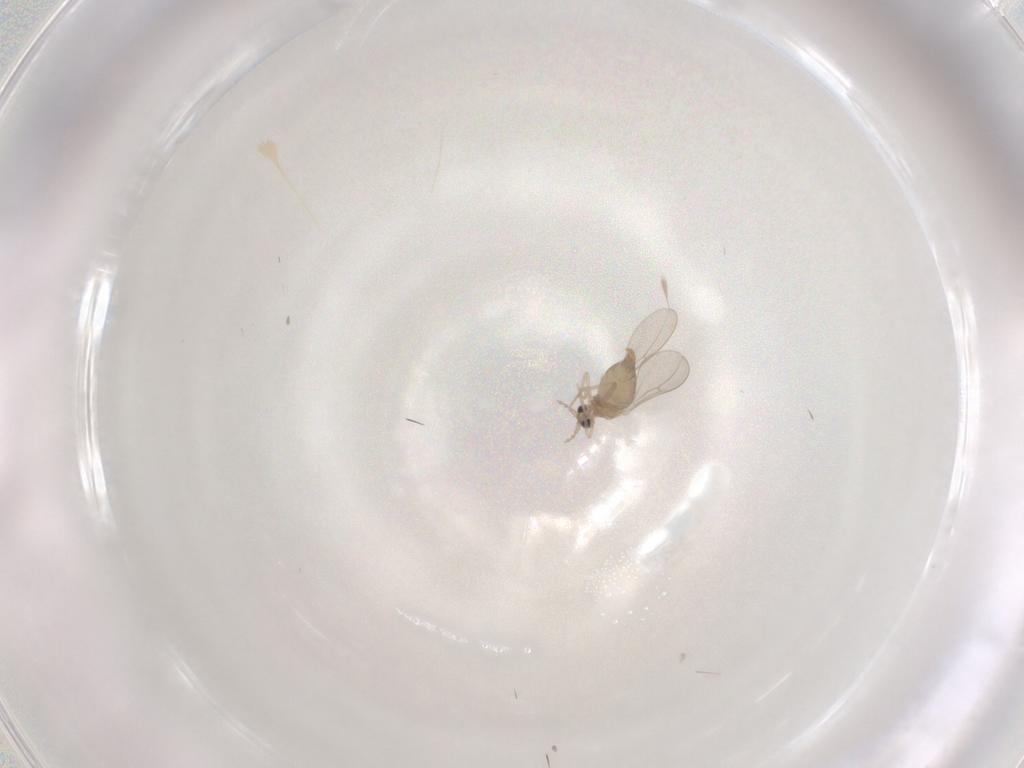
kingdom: Animalia
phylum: Arthropoda
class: Insecta
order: Diptera
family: Cecidomyiidae
